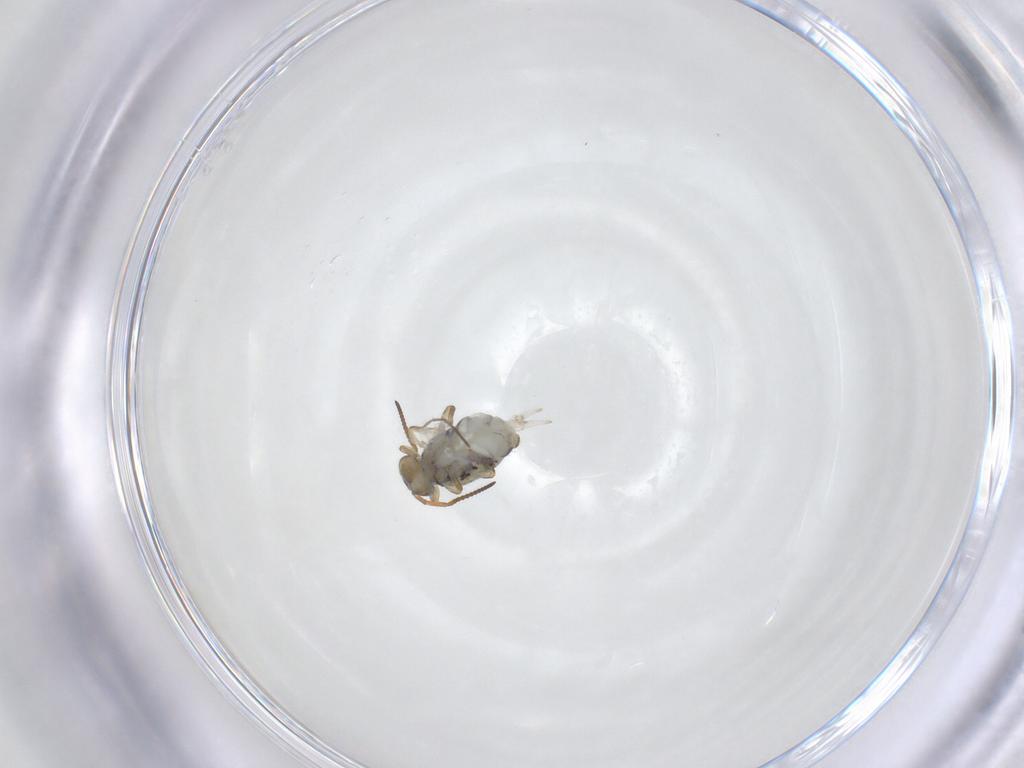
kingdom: Animalia
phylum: Arthropoda
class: Collembola
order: Symphypleona
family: Katiannidae
